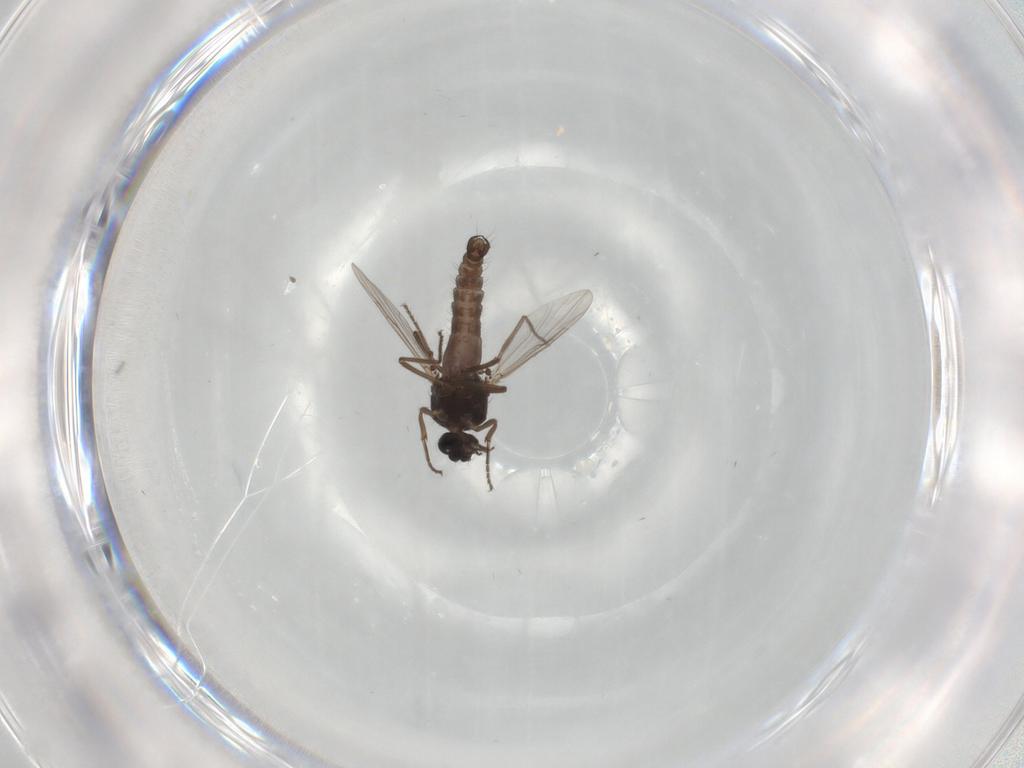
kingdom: Animalia
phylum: Arthropoda
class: Insecta
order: Diptera
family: Ceratopogonidae
